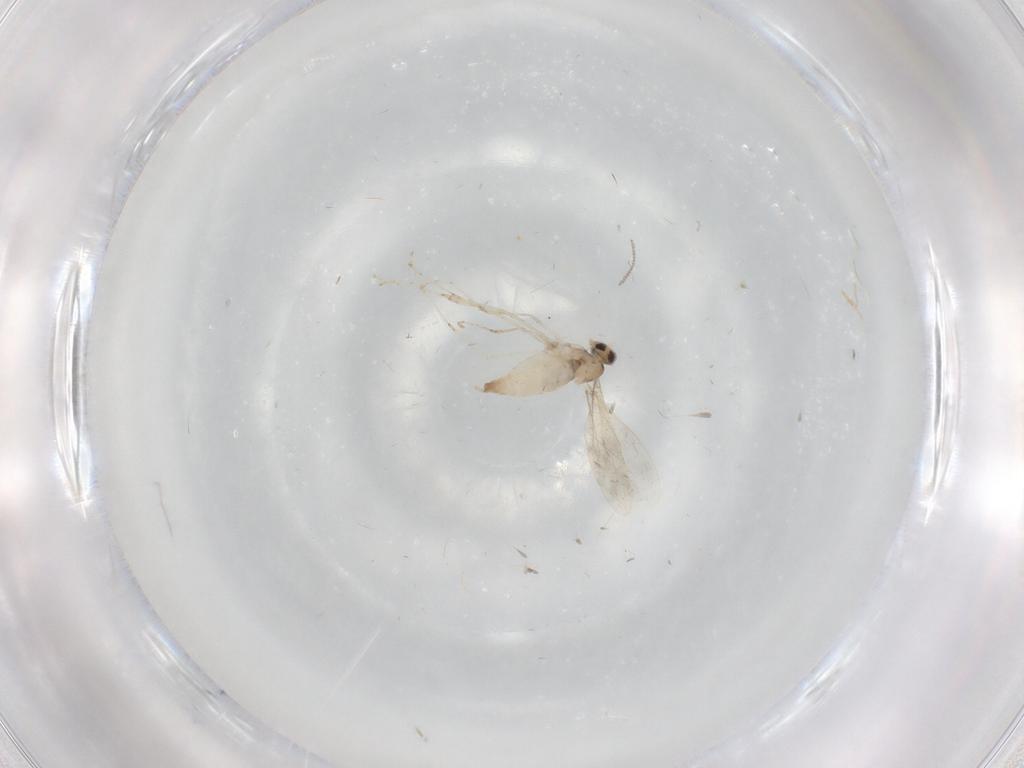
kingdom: Animalia
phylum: Arthropoda
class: Insecta
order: Diptera
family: Cecidomyiidae
